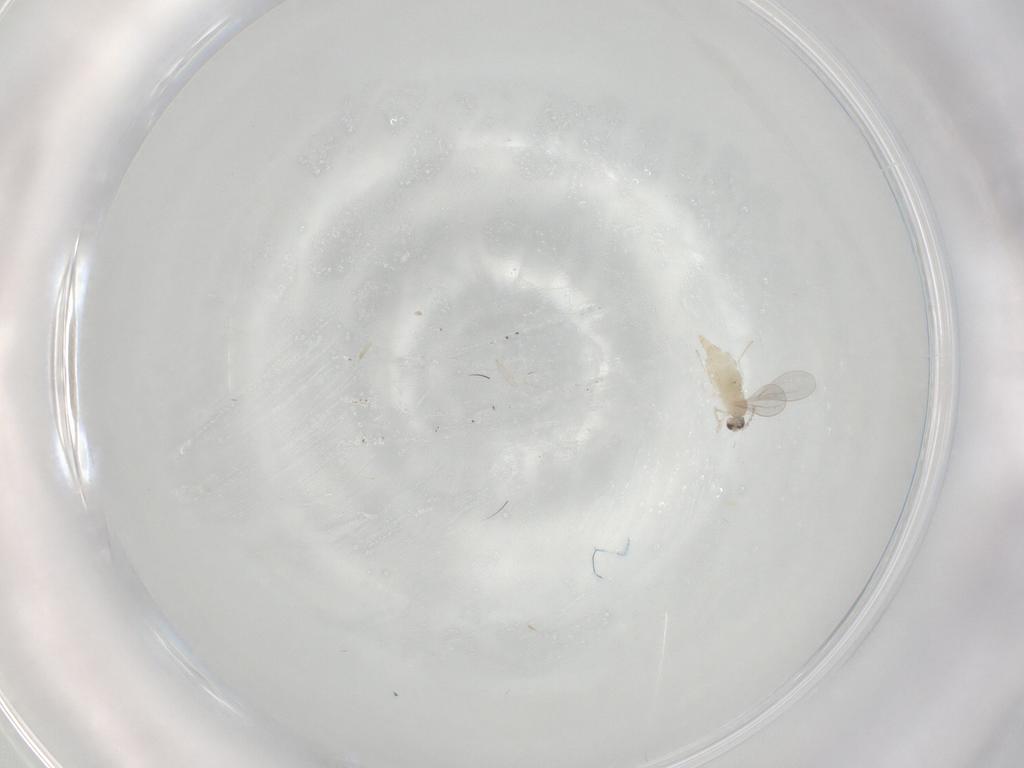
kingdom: Animalia
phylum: Arthropoda
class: Insecta
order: Diptera
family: Cecidomyiidae
